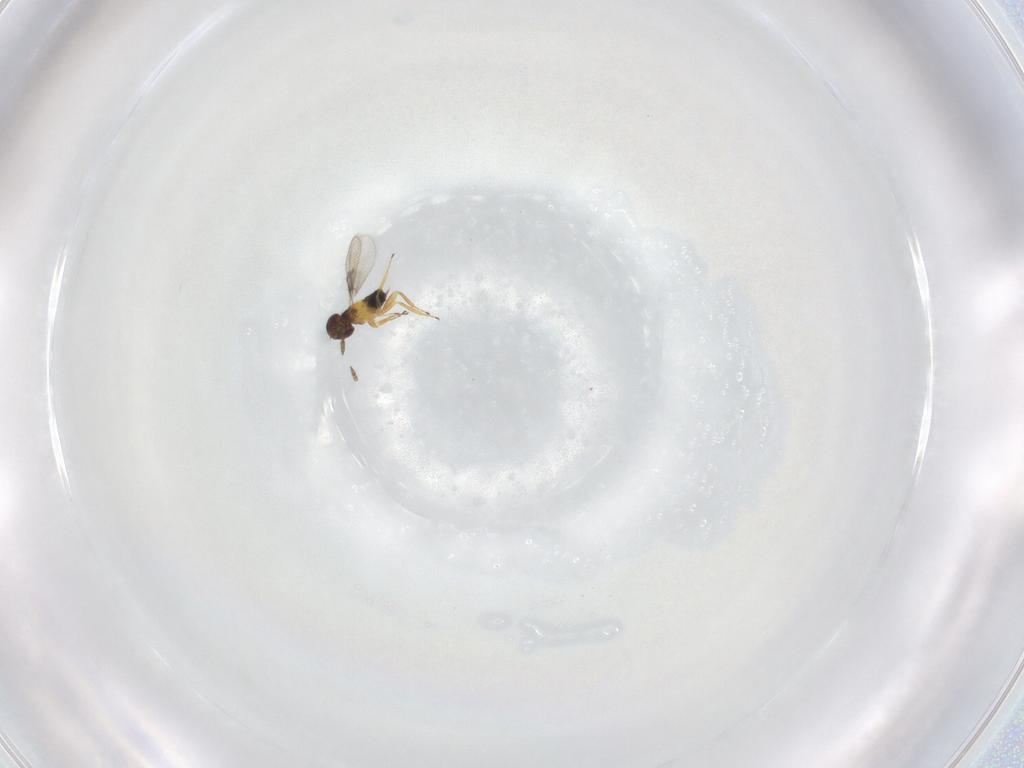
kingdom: Animalia
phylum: Arthropoda
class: Insecta
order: Hymenoptera
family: Trichogrammatidae
